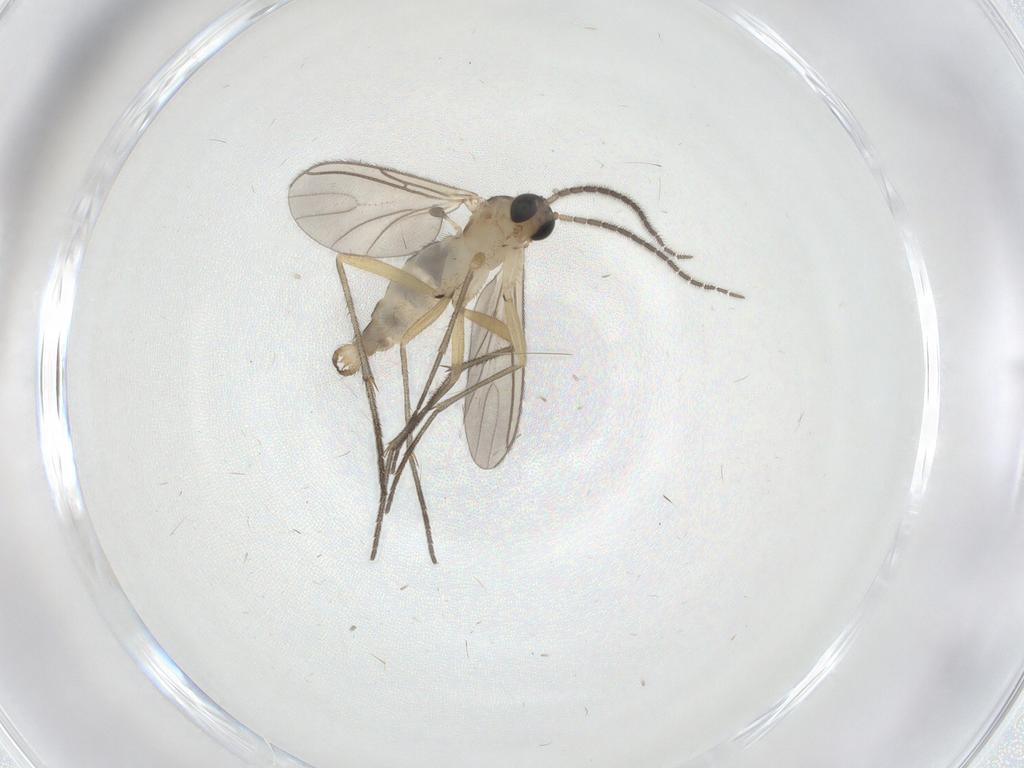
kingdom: Animalia
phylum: Arthropoda
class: Insecta
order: Diptera
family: Sciaridae
